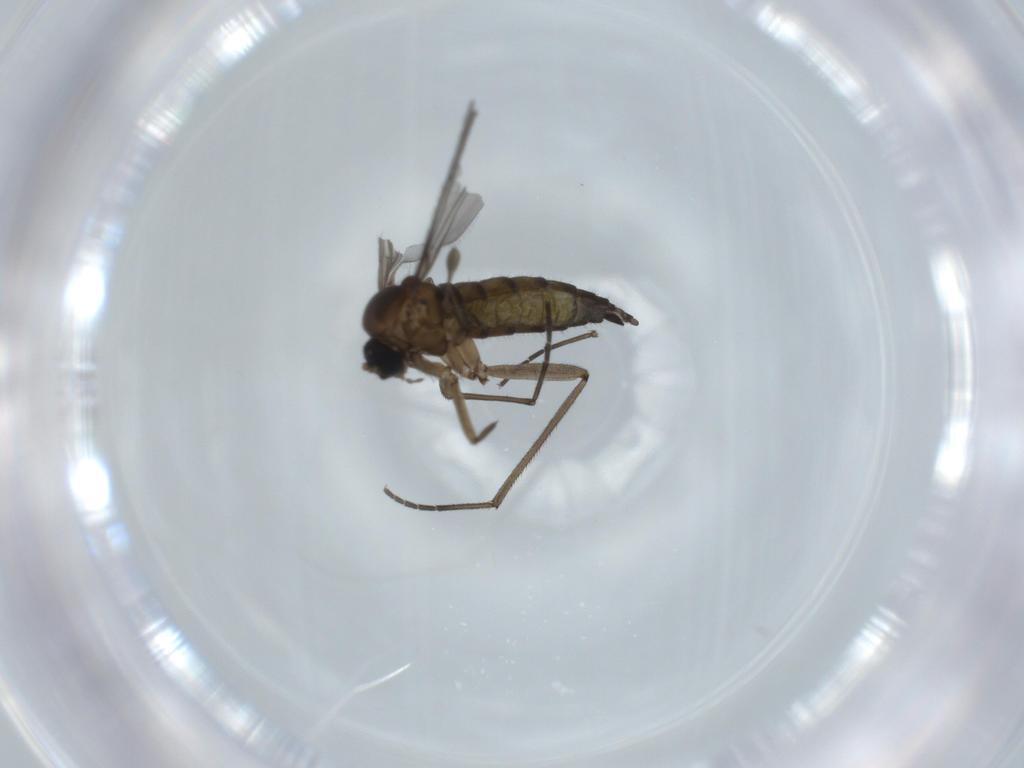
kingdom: Animalia
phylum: Arthropoda
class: Insecta
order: Diptera
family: Sciaridae
